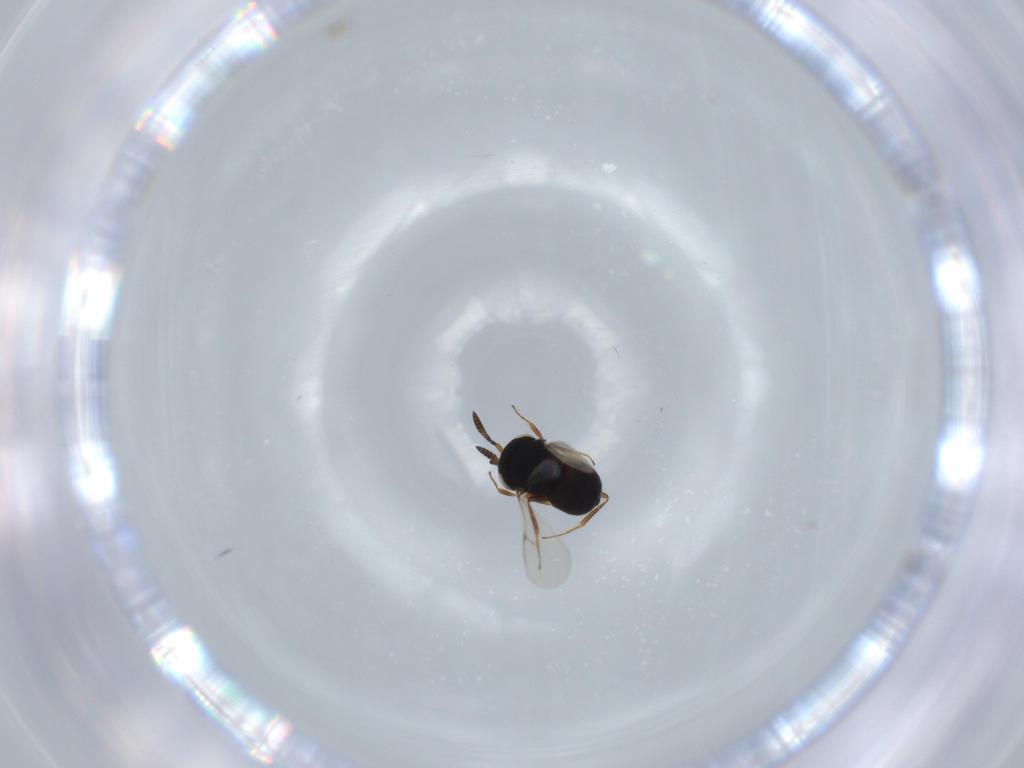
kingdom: Animalia
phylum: Arthropoda
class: Insecta
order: Hymenoptera
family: Scelionidae
